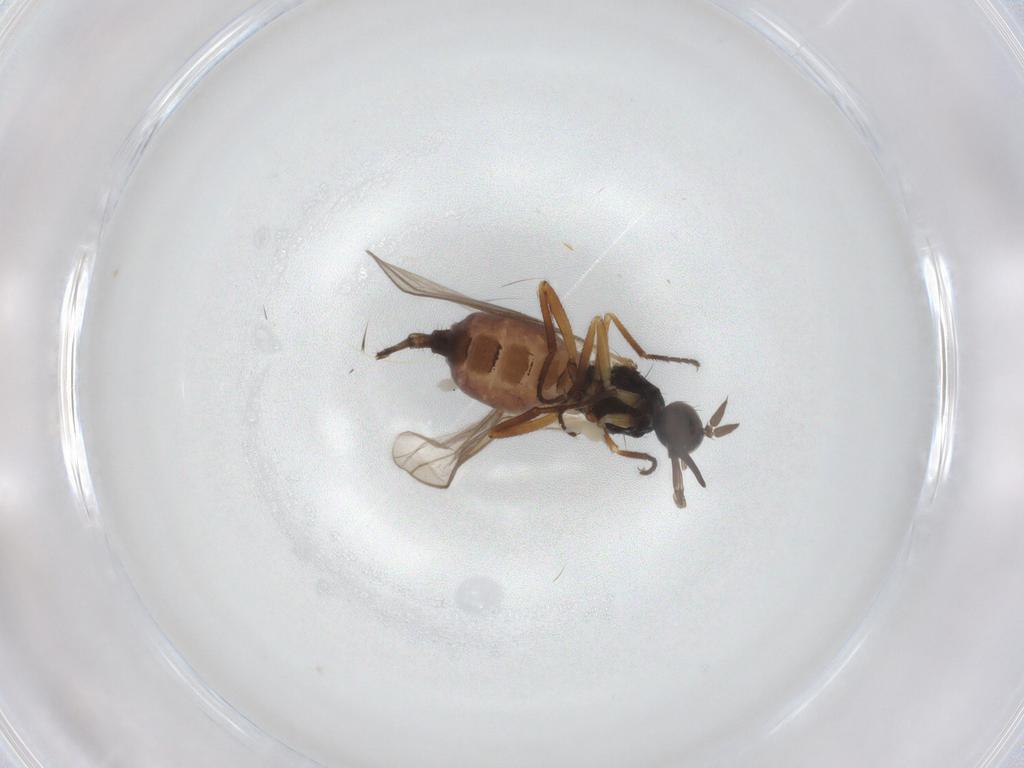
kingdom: Animalia
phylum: Arthropoda
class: Insecta
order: Diptera
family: Hybotidae
